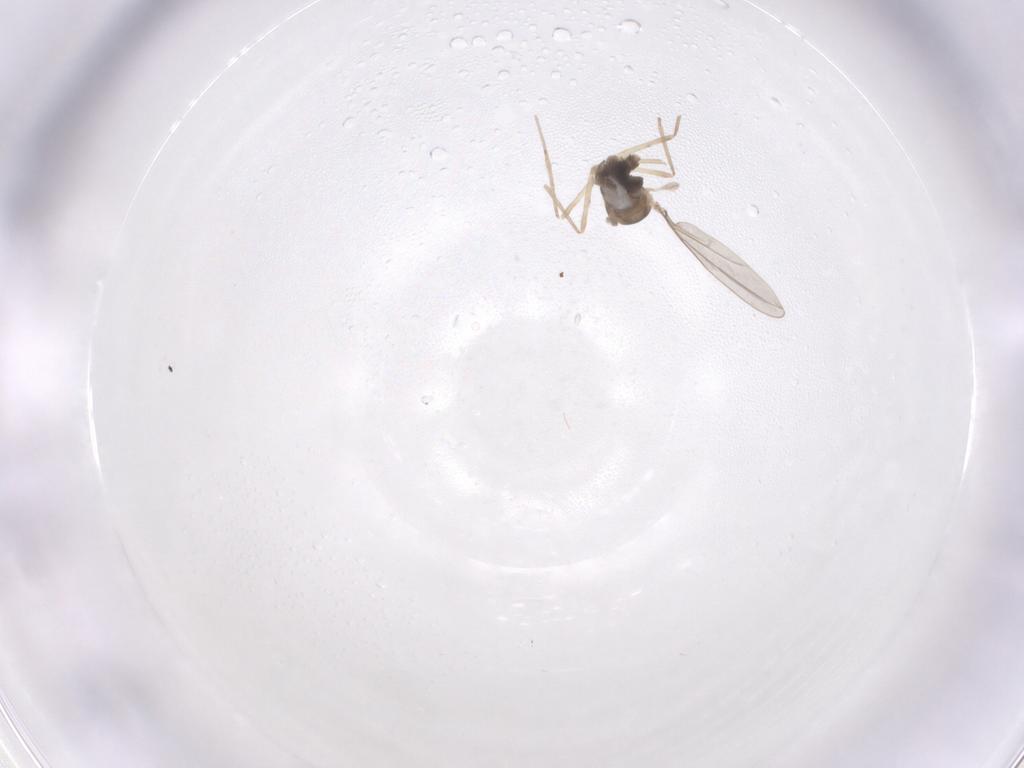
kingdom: Animalia
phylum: Arthropoda
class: Insecta
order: Diptera
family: Cecidomyiidae
